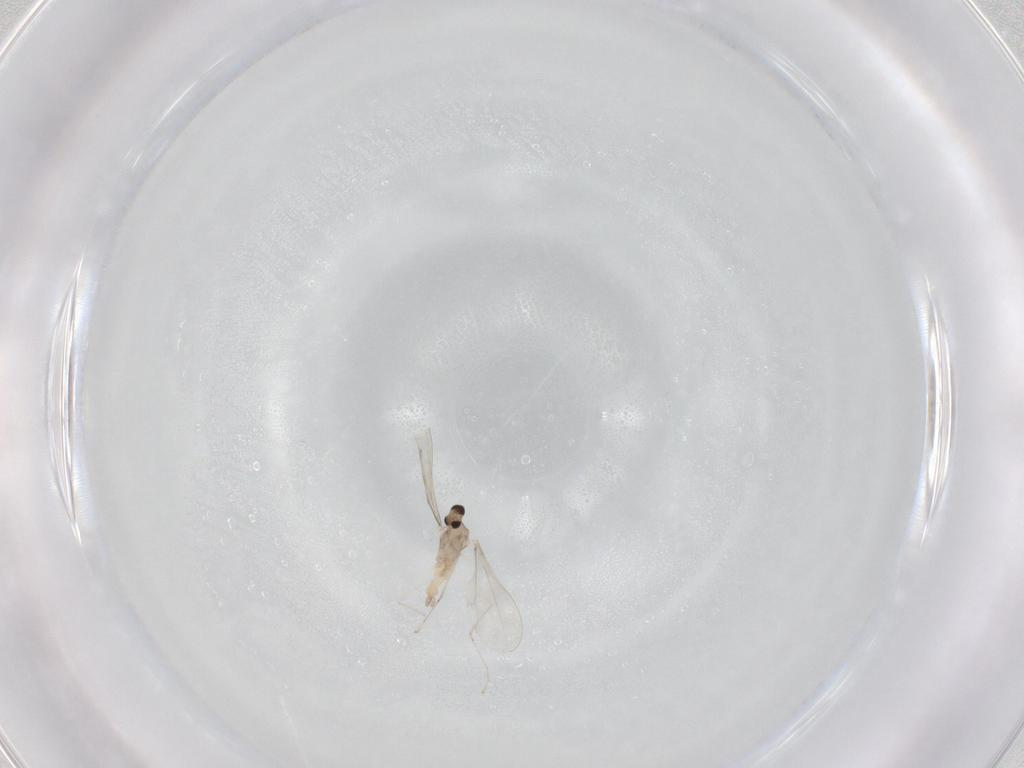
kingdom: Animalia
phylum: Arthropoda
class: Insecta
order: Diptera
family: Cecidomyiidae
